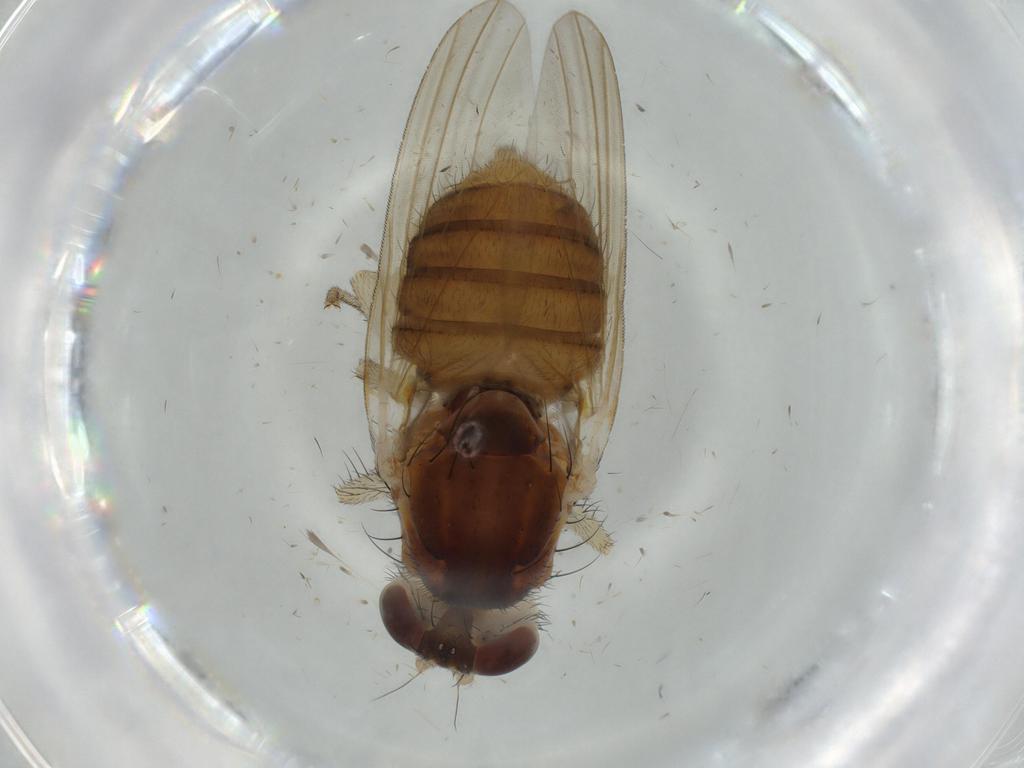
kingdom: Animalia
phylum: Arthropoda
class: Insecta
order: Diptera
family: Lauxaniidae
